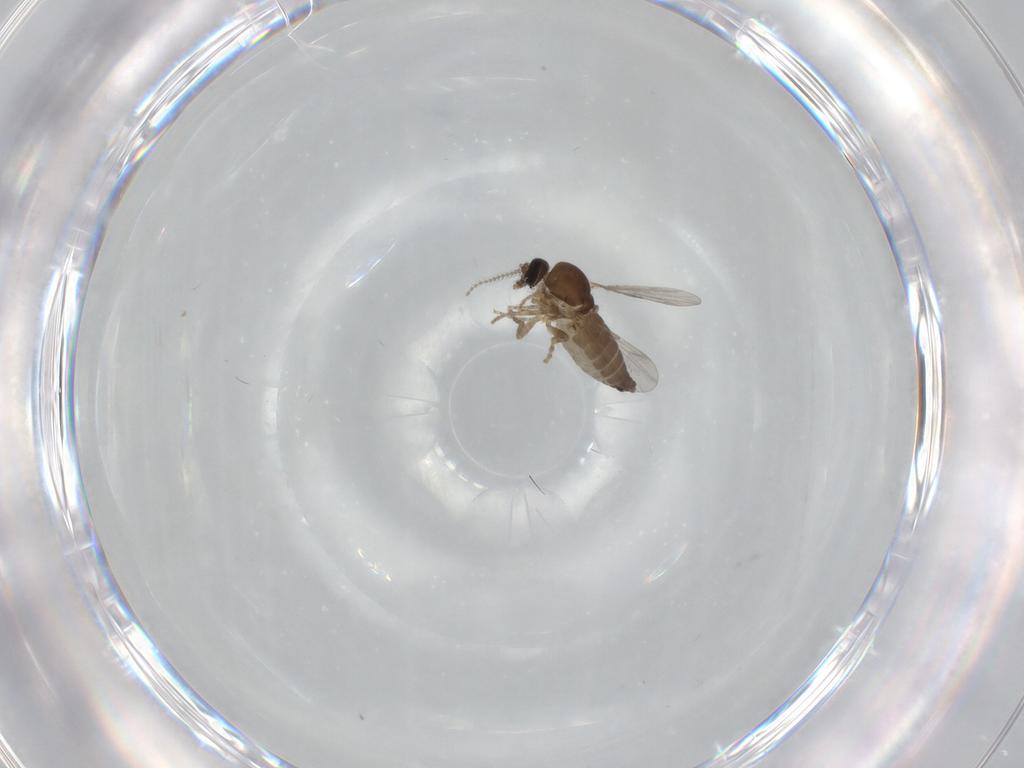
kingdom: Animalia
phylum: Arthropoda
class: Insecta
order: Diptera
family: Ceratopogonidae
